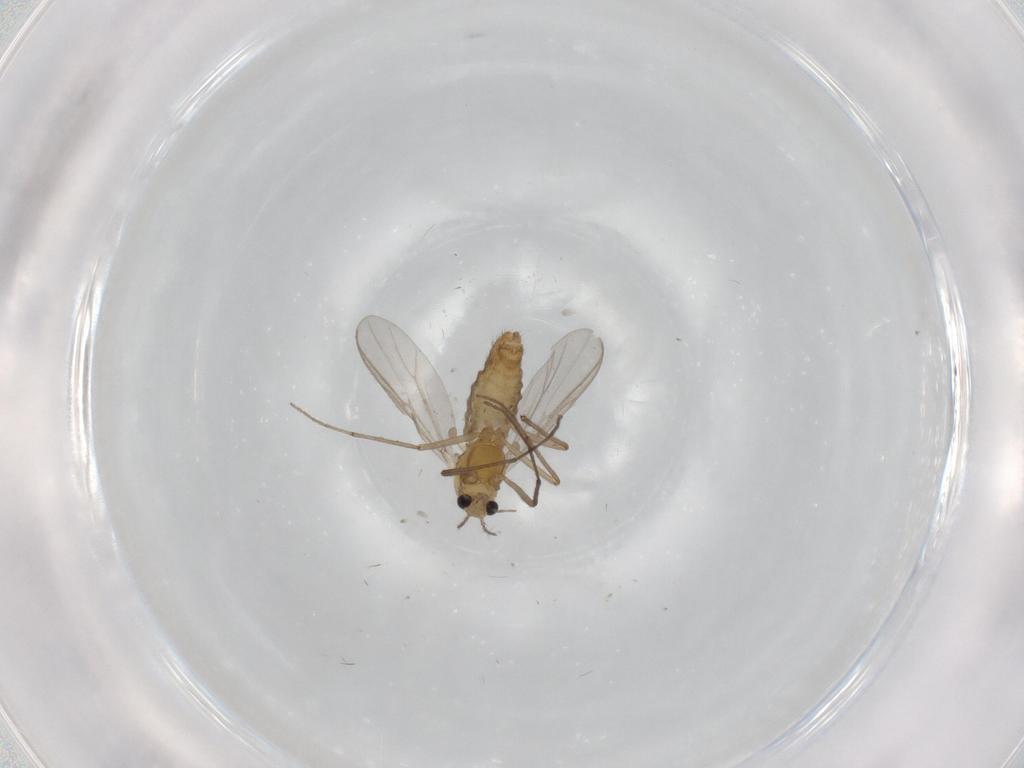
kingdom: Animalia
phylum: Arthropoda
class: Insecta
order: Diptera
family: Chironomidae
